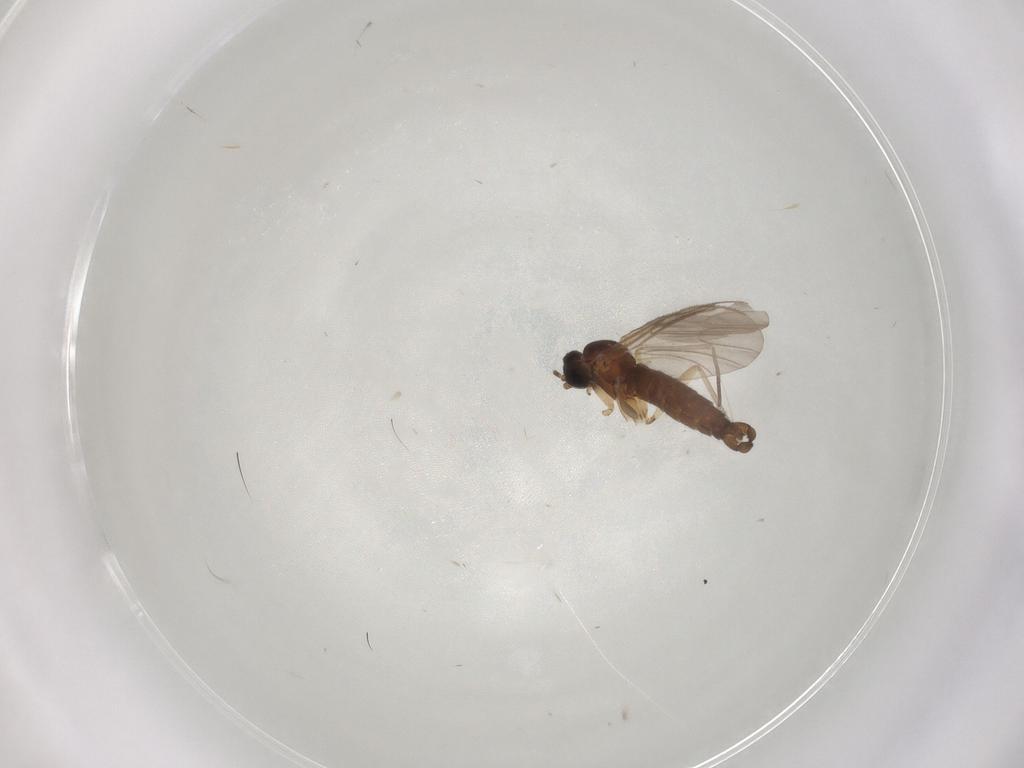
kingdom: Animalia
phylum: Arthropoda
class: Insecta
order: Diptera
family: Sciaridae
